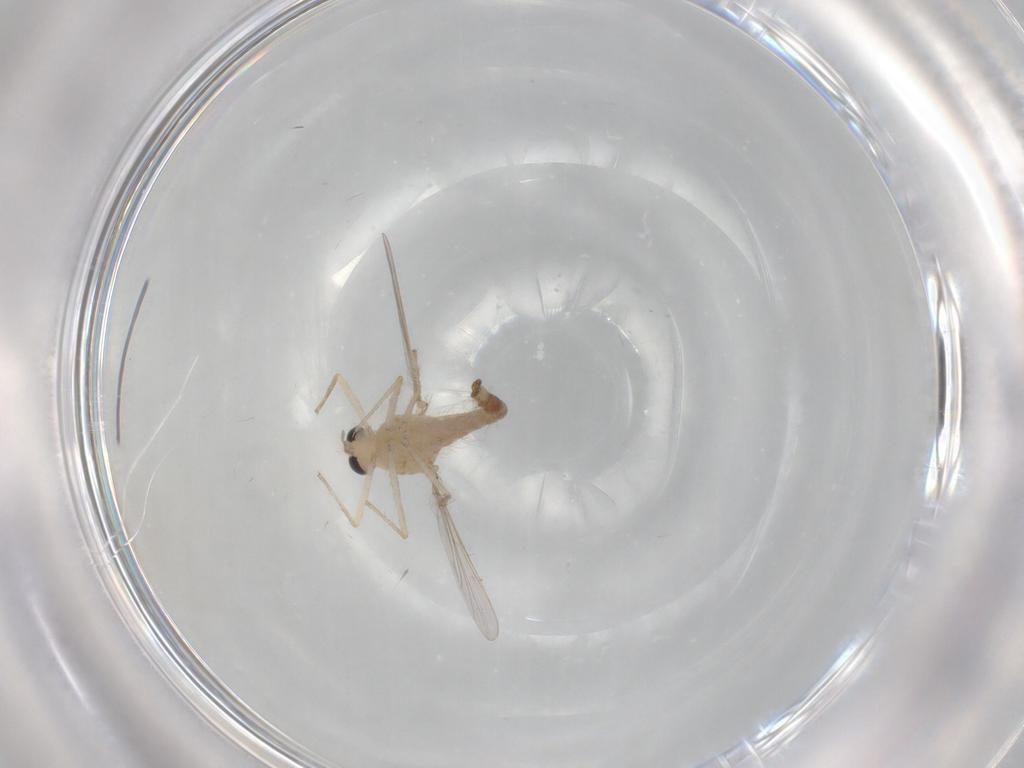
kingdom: Animalia
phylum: Arthropoda
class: Insecta
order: Diptera
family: Chironomidae
